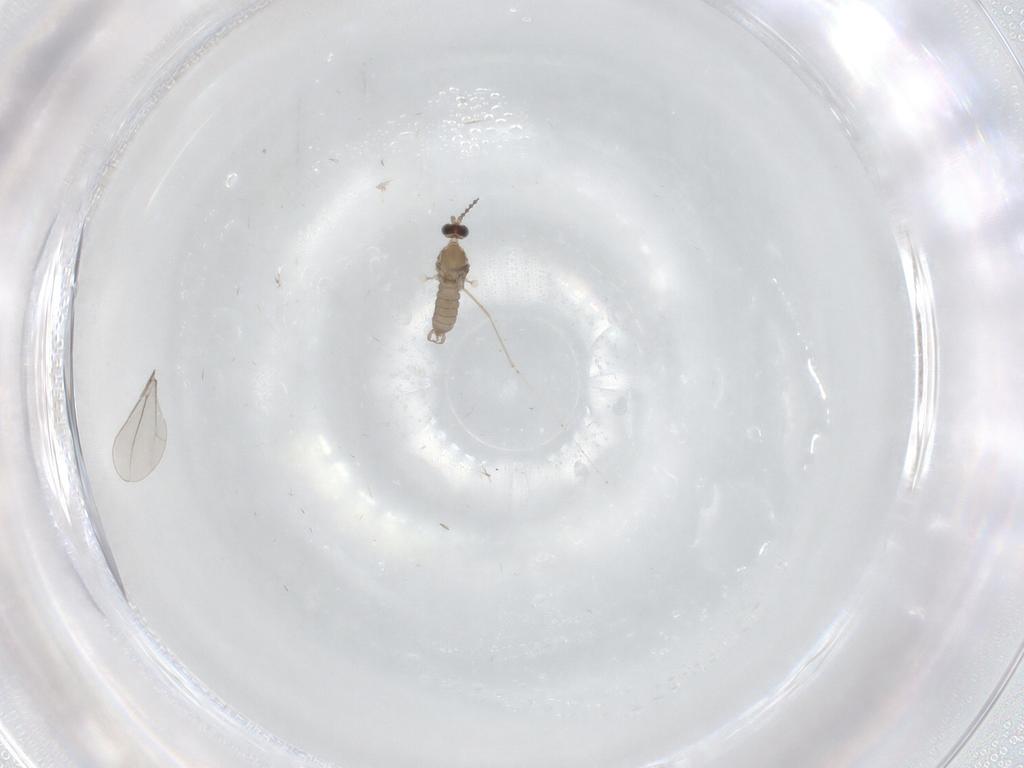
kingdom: Animalia
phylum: Arthropoda
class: Insecta
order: Diptera
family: Cecidomyiidae
